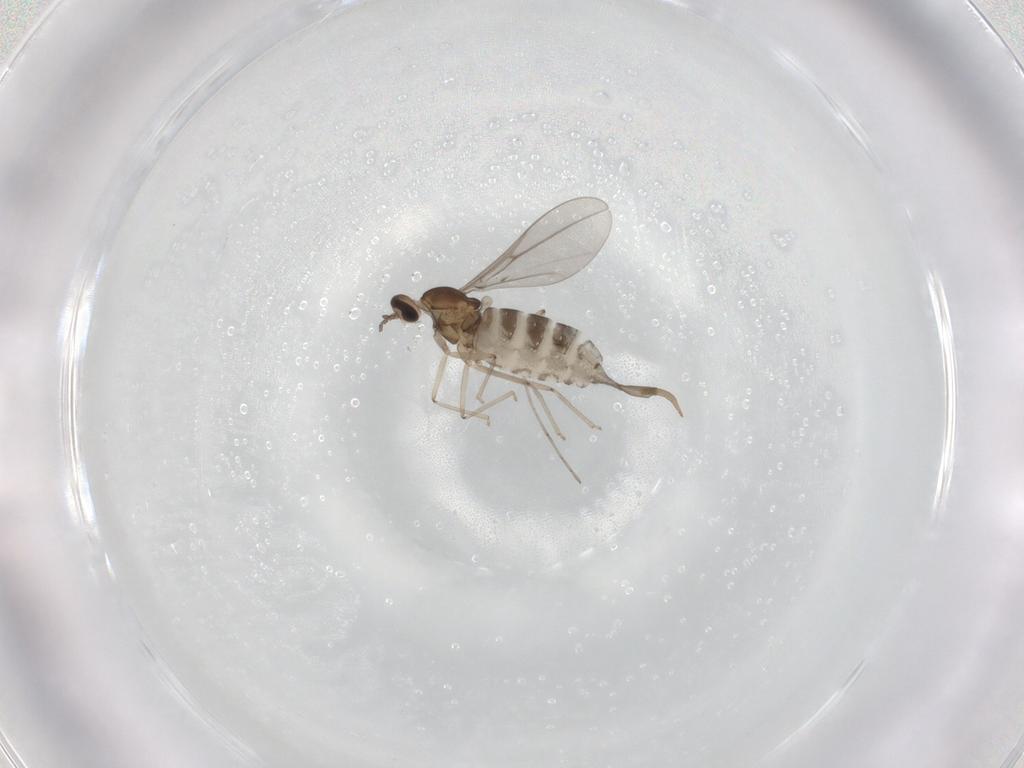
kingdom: Animalia
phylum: Arthropoda
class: Insecta
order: Diptera
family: Cecidomyiidae
